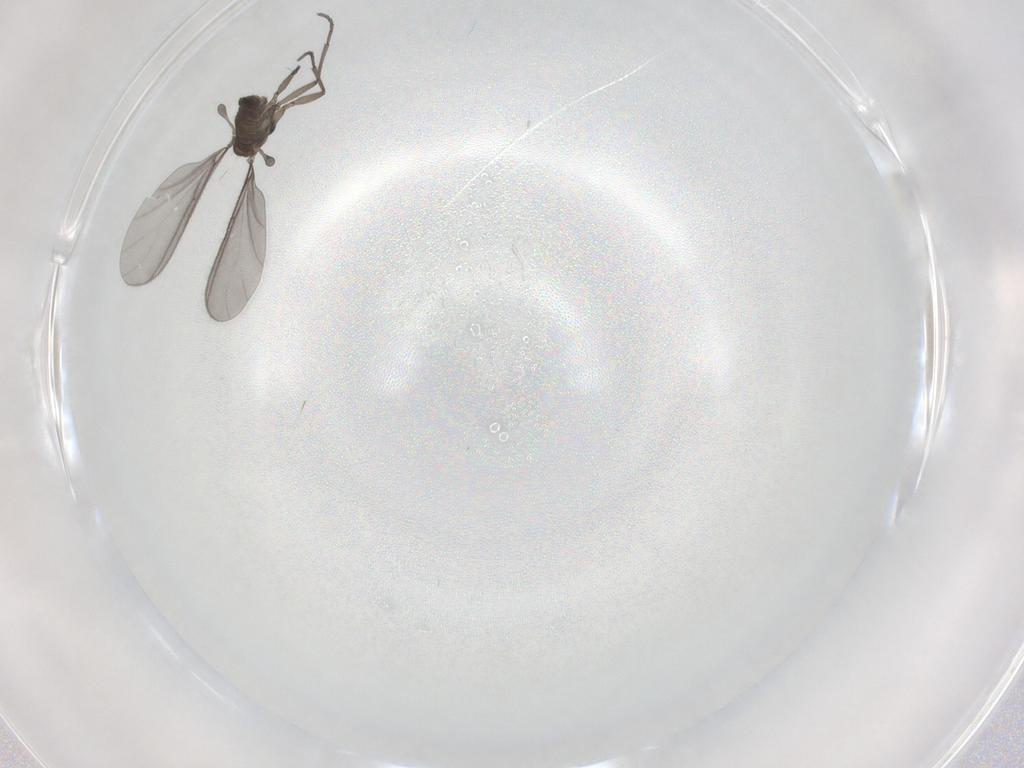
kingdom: Animalia
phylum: Arthropoda
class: Insecta
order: Diptera
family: Sciaridae
